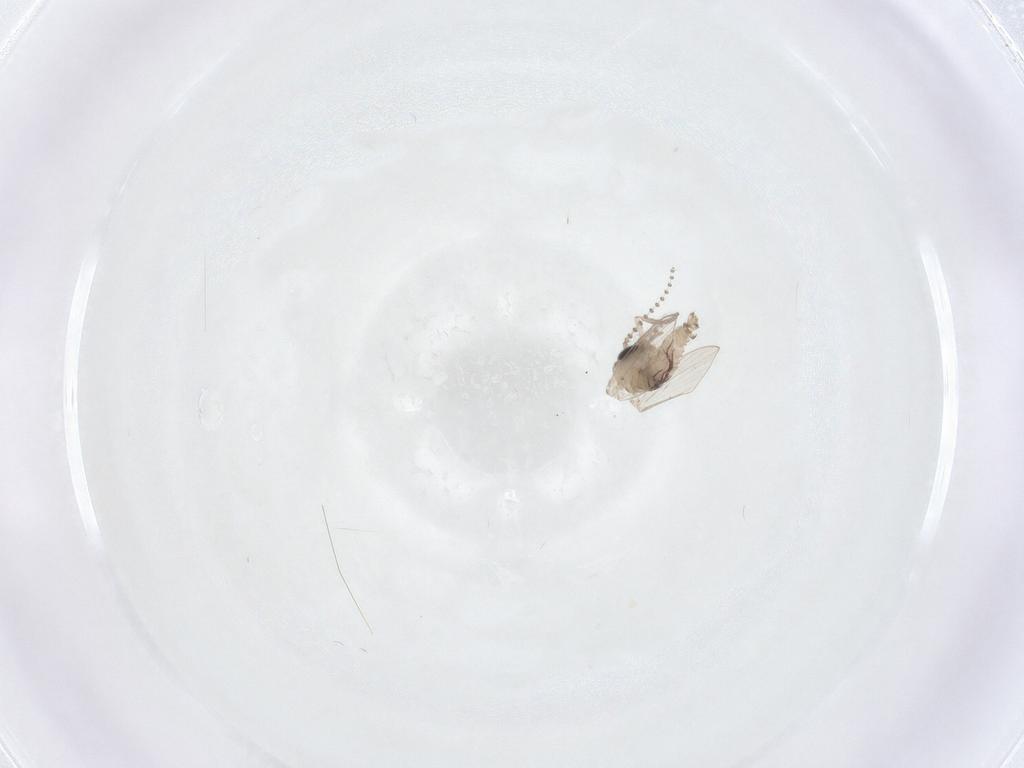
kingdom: Animalia
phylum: Arthropoda
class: Insecta
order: Diptera
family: Psychodidae
